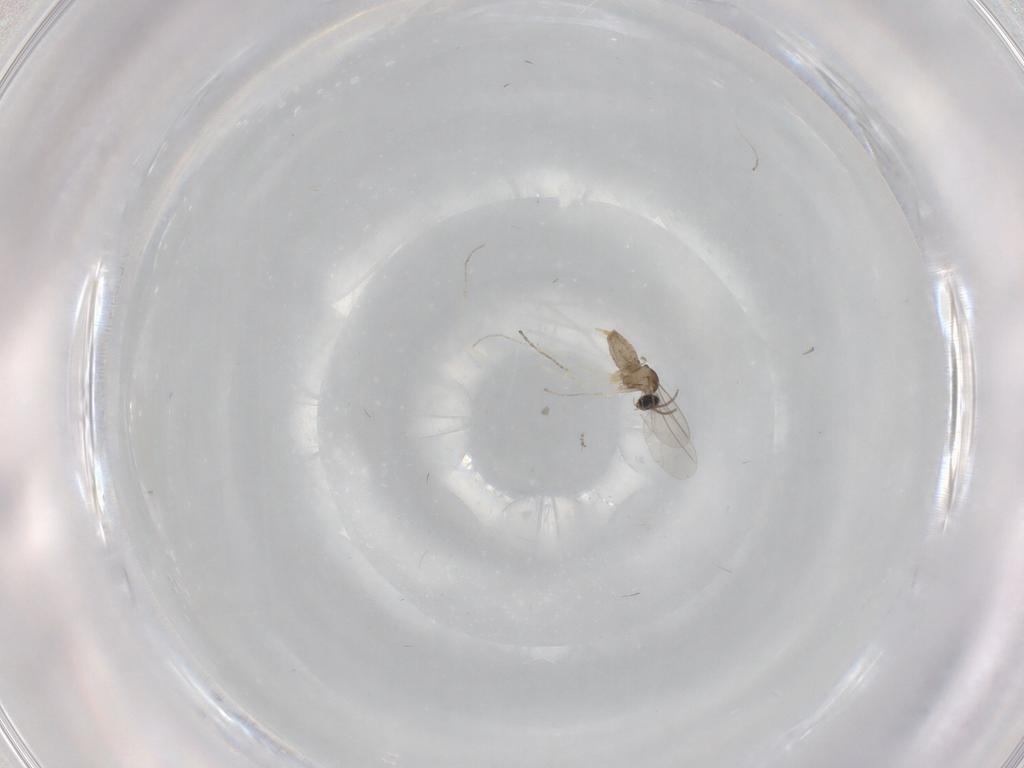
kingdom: Animalia
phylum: Arthropoda
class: Insecta
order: Diptera
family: Cecidomyiidae
